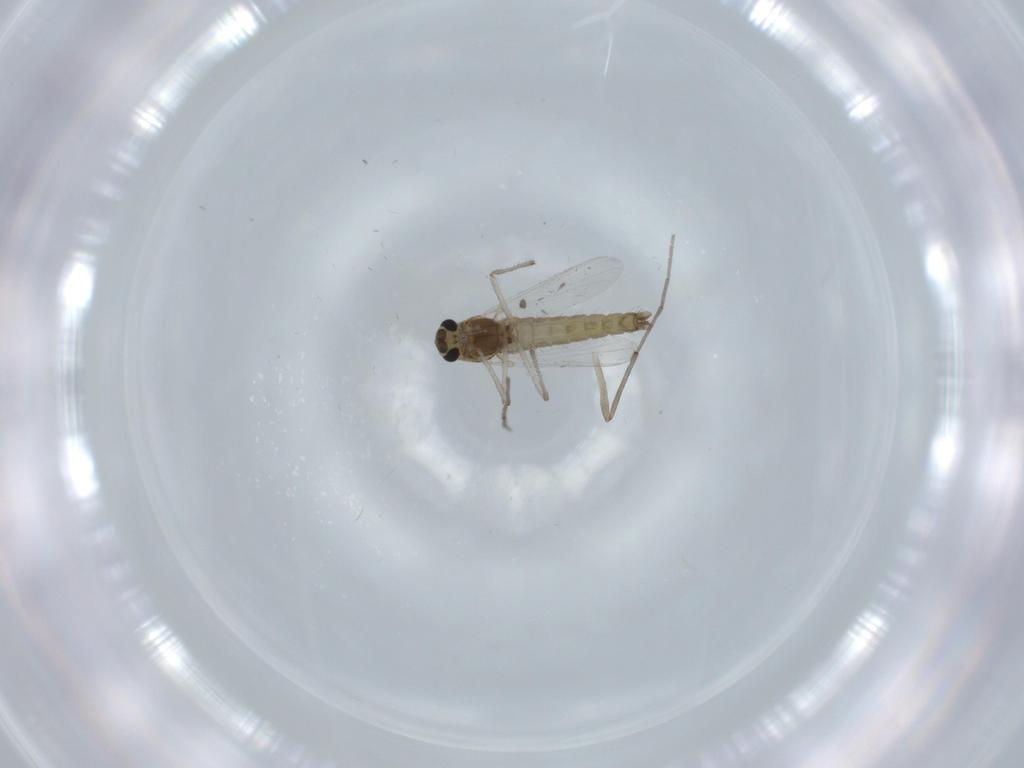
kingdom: Animalia
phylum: Arthropoda
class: Insecta
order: Diptera
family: Chironomidae
